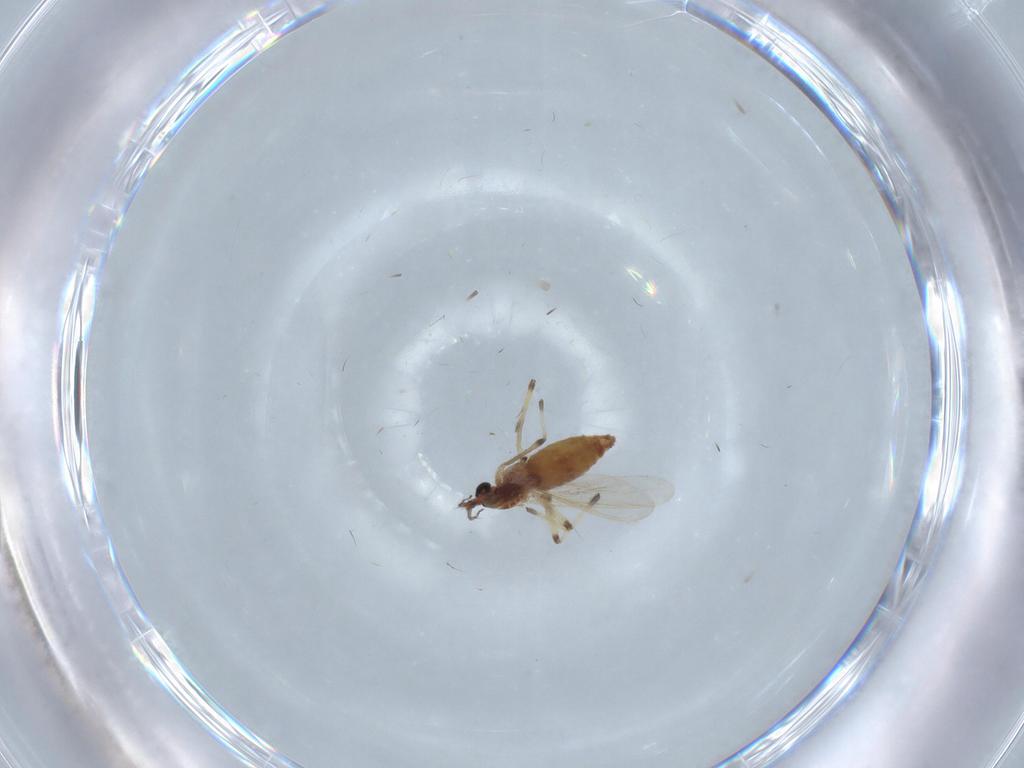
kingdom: Animalia
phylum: Arthropoda
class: Insecta
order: Diptera
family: Chironomidae
